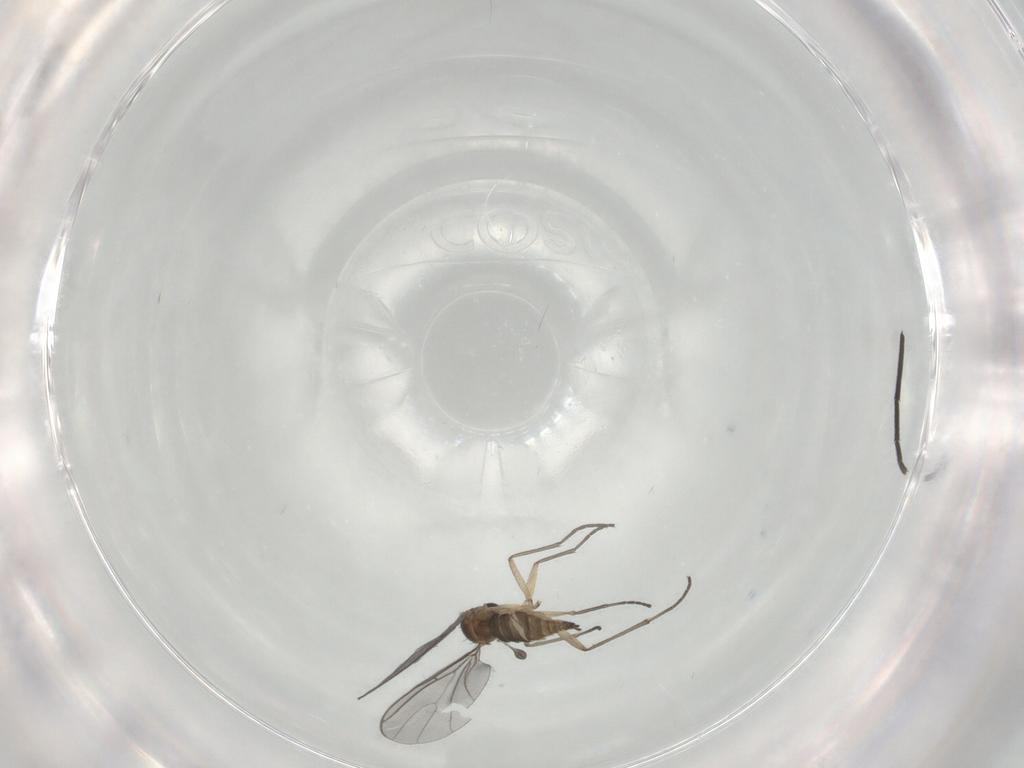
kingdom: Animalia
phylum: Arthropoda
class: Insecta
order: Diptera
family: Sciaridae
